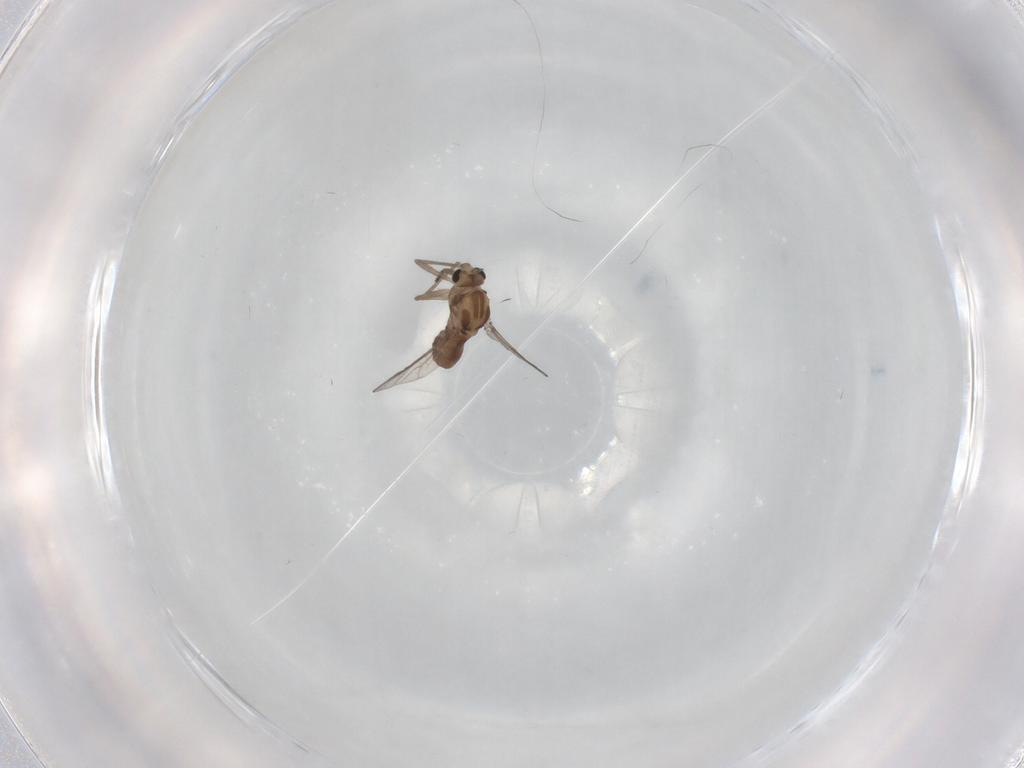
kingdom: Animalia
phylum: Arthropoda
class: Insecta
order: Diptera
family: Chironomidae
